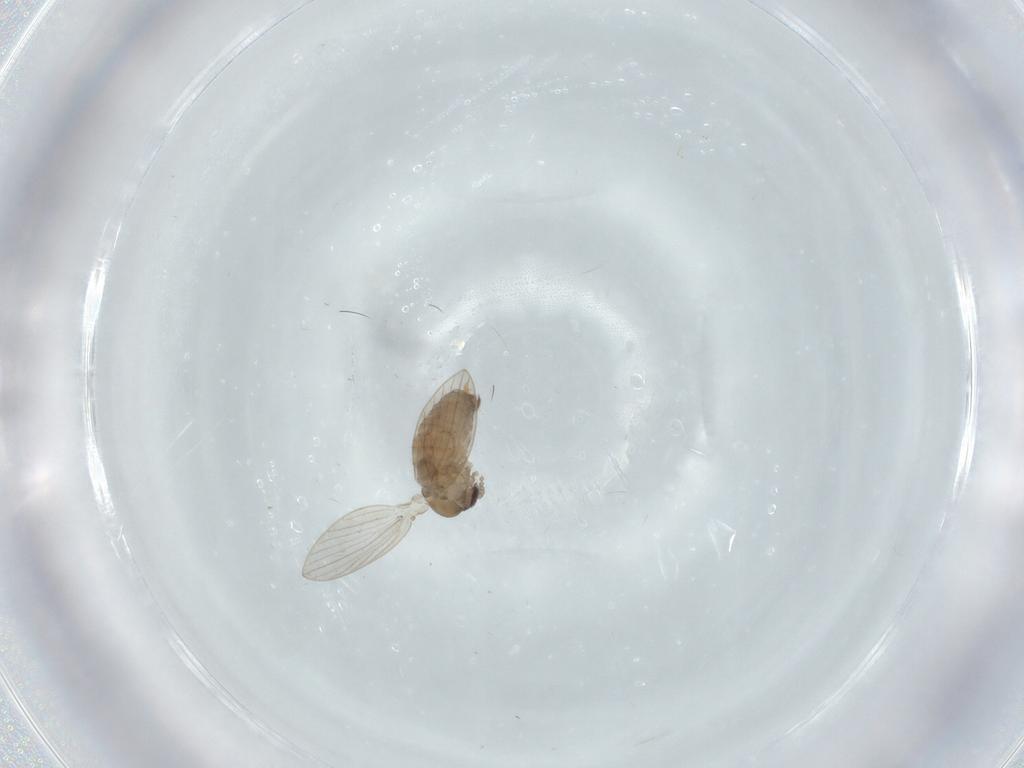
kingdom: Animalia
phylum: Arthropoda
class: Insecta
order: Diptera
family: Psychodidae
